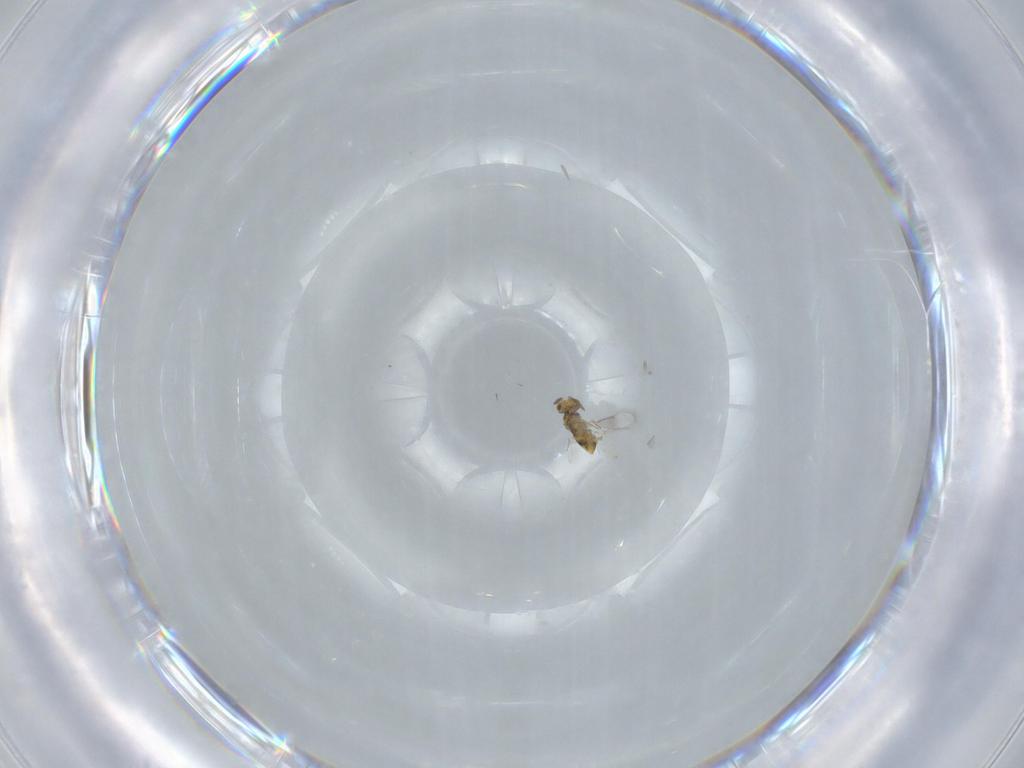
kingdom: Animalia
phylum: Arthropoda
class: Insecta
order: Hymenoptera
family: Aphelinidae
